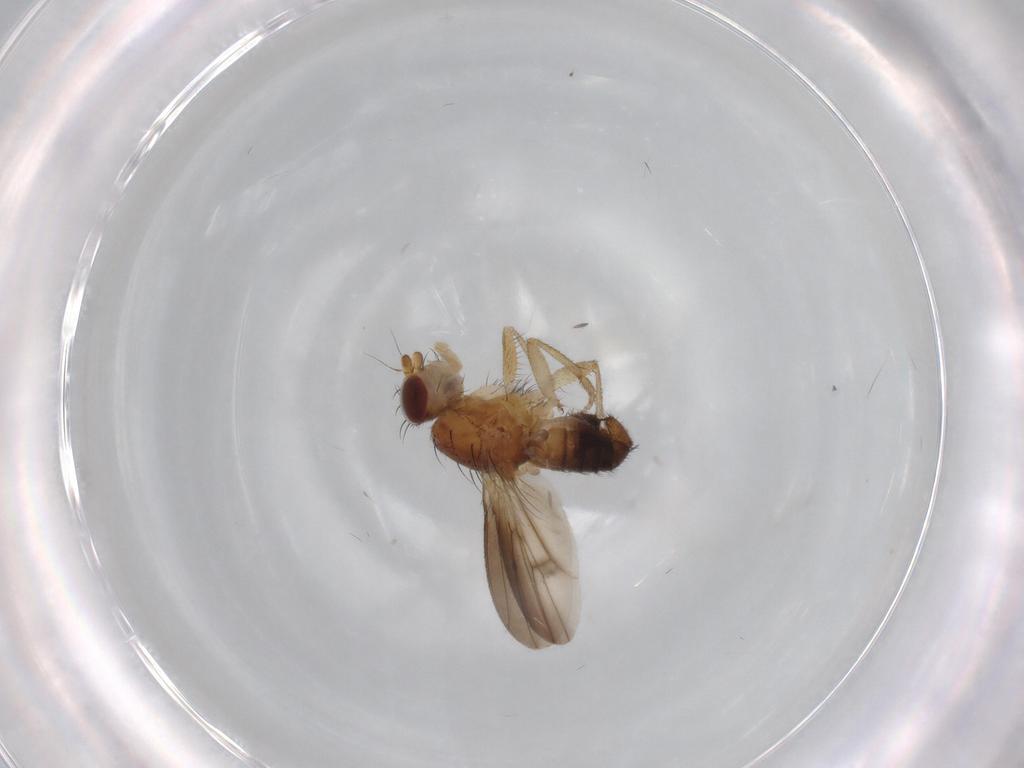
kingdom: Animalia
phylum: Arthropoda
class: Insecta
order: Diptera
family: Heleomyzidae
